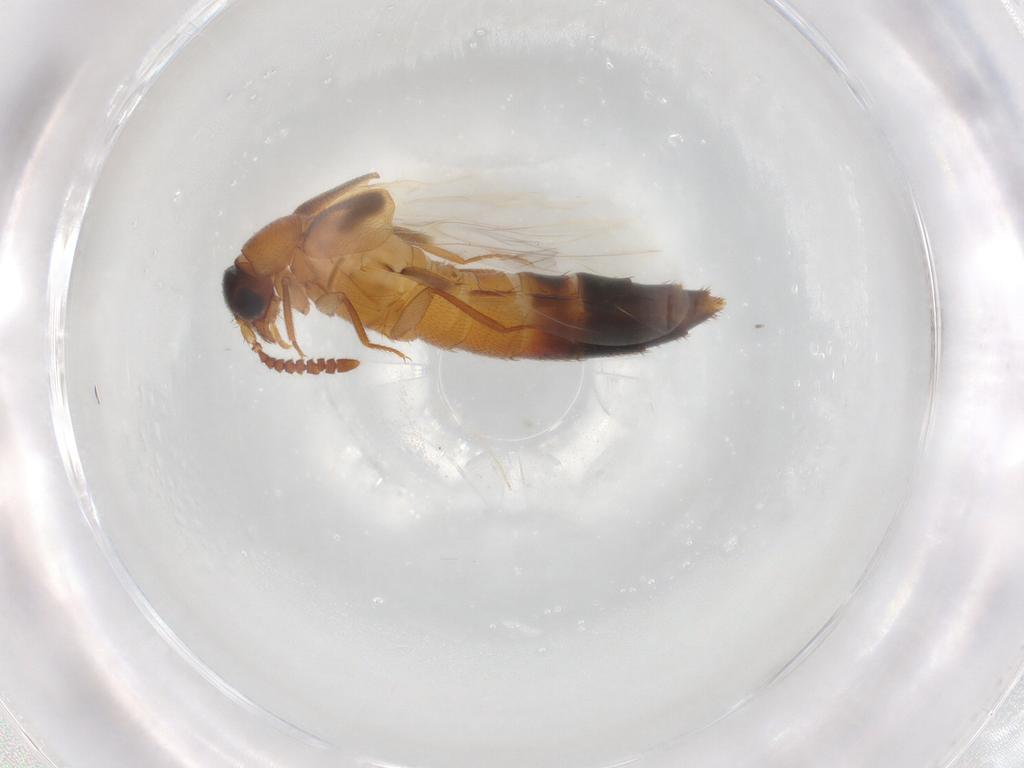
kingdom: Animalia
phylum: Arthropoda
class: Insecta
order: Coleoptera
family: Staphylinidae
